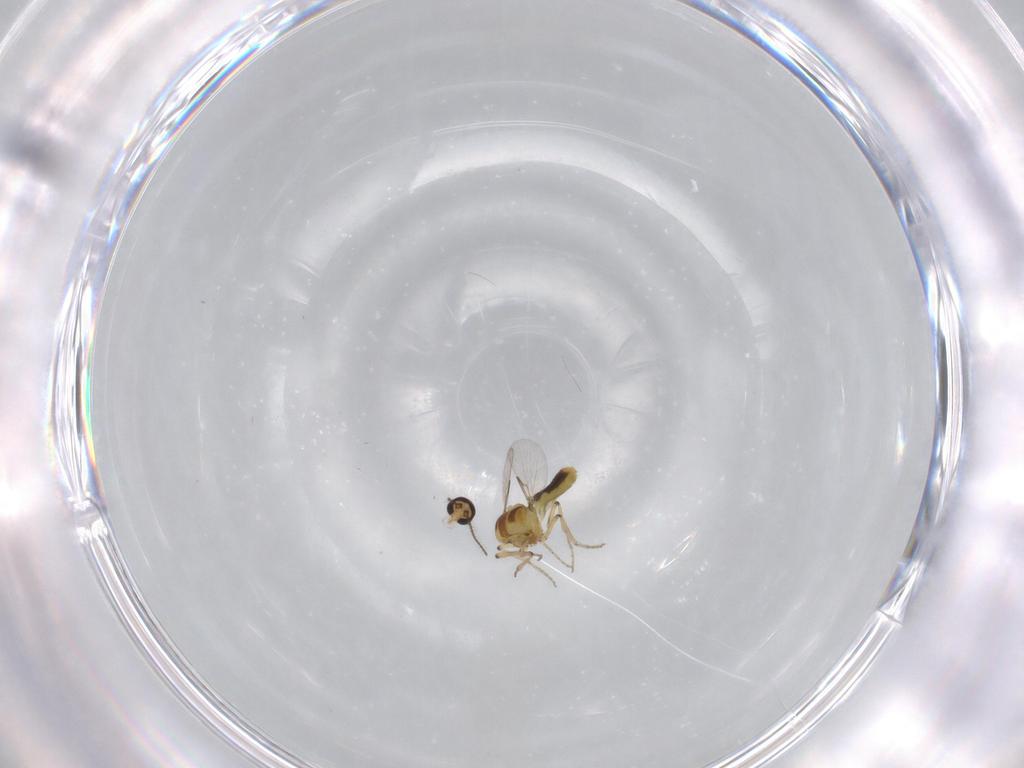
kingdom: Animalia
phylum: Arthropoda
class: Insecta
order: Diptera
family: Ceratopogonidae
